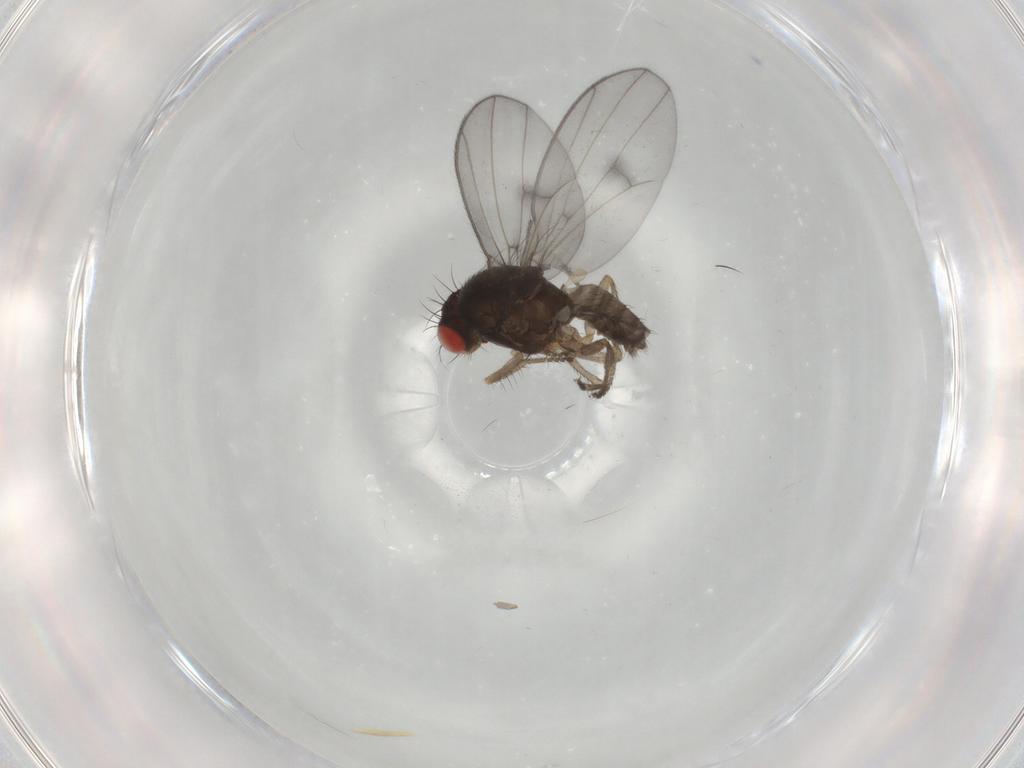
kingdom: Animalia
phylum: Arthropoda
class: Insecta
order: Diptera
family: Drosophilidae
